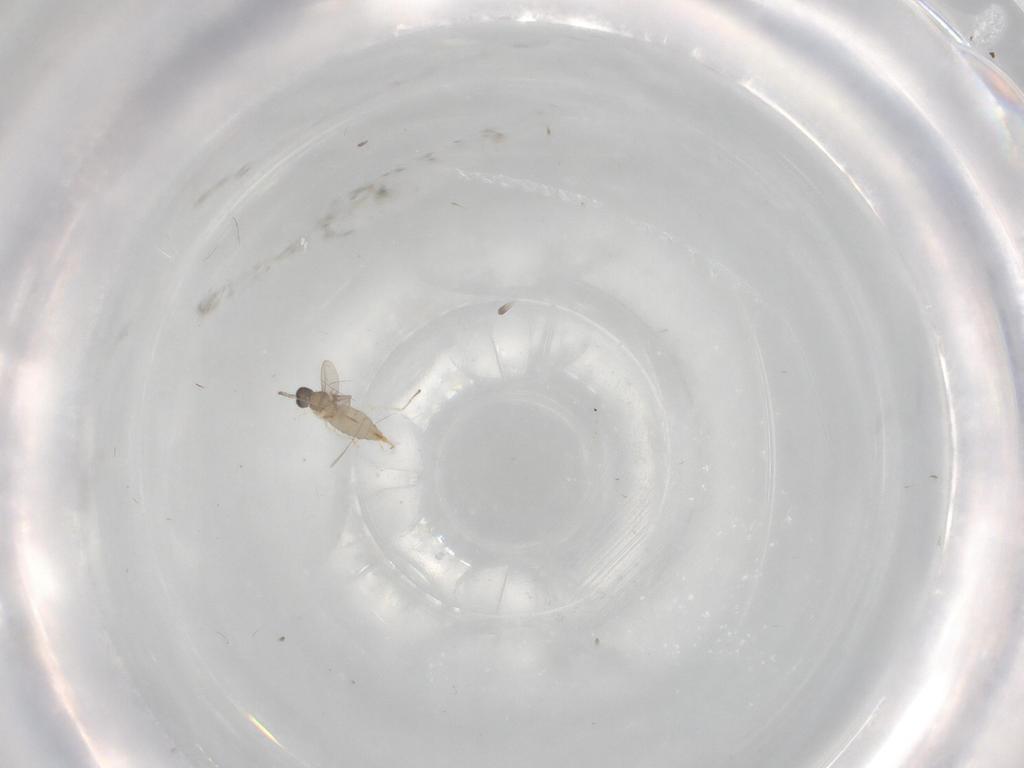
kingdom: Animalia
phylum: Arthropoda
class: Insecta
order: Diptera
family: Cecidomyiidae
